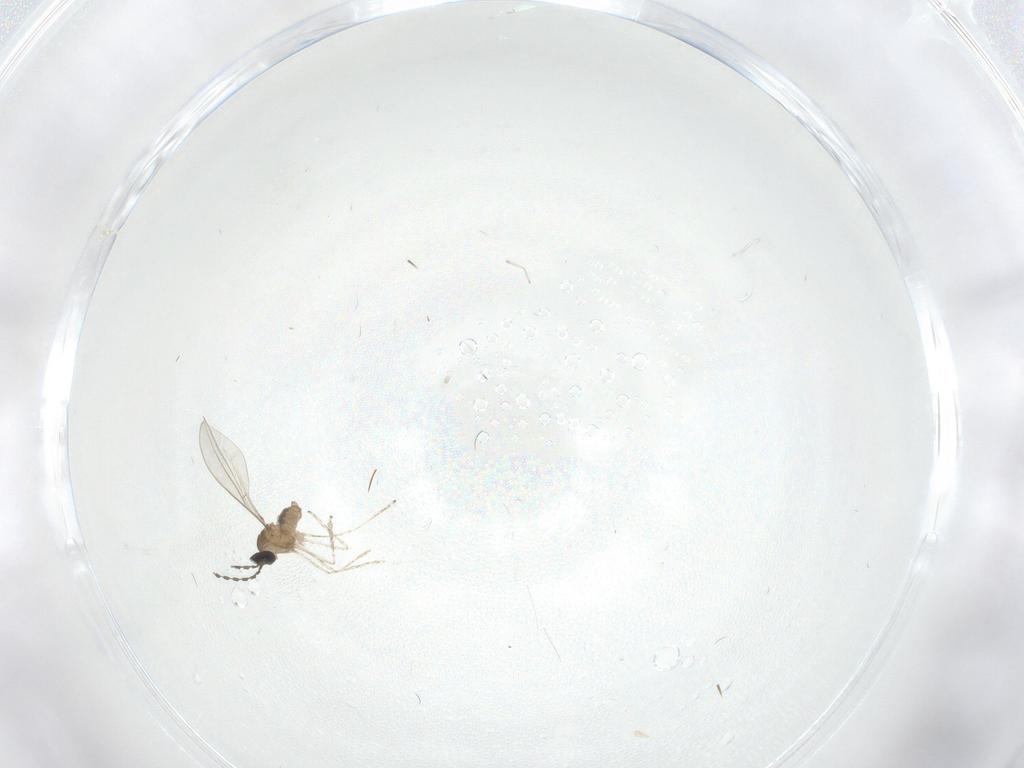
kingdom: Animalia
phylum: Arthropoda
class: Insecta
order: Diptera
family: Cecidomyiidae
